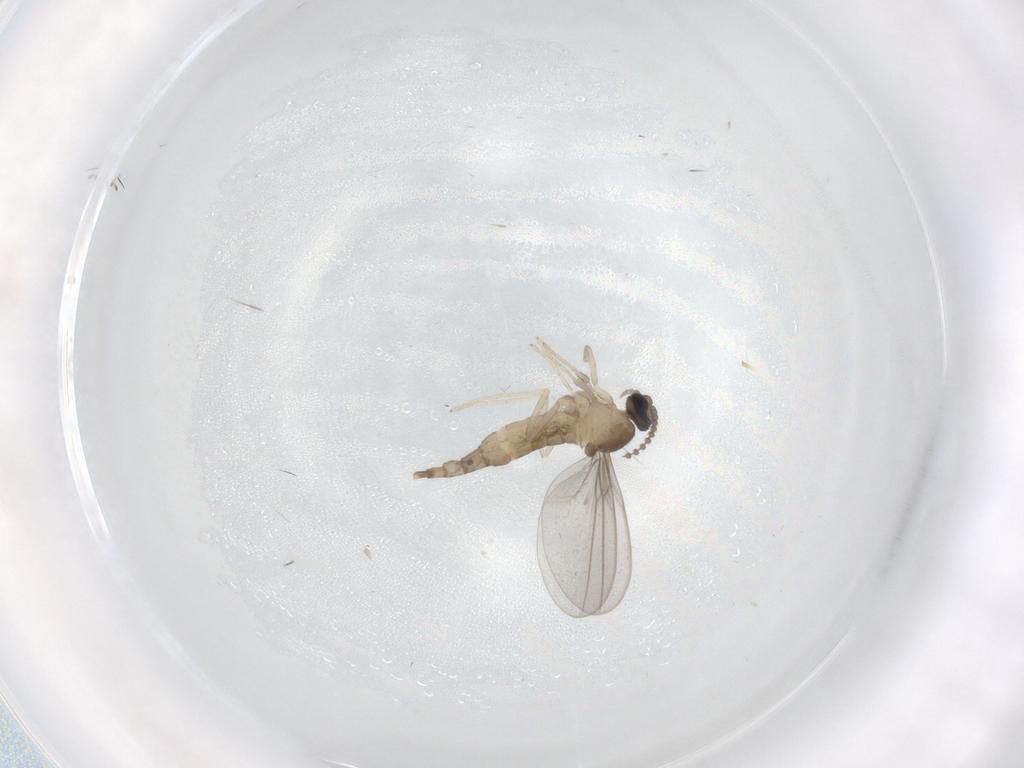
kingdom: Animalia
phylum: Arthropoda
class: Insecta
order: Diptera
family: Cecidomyiidae
